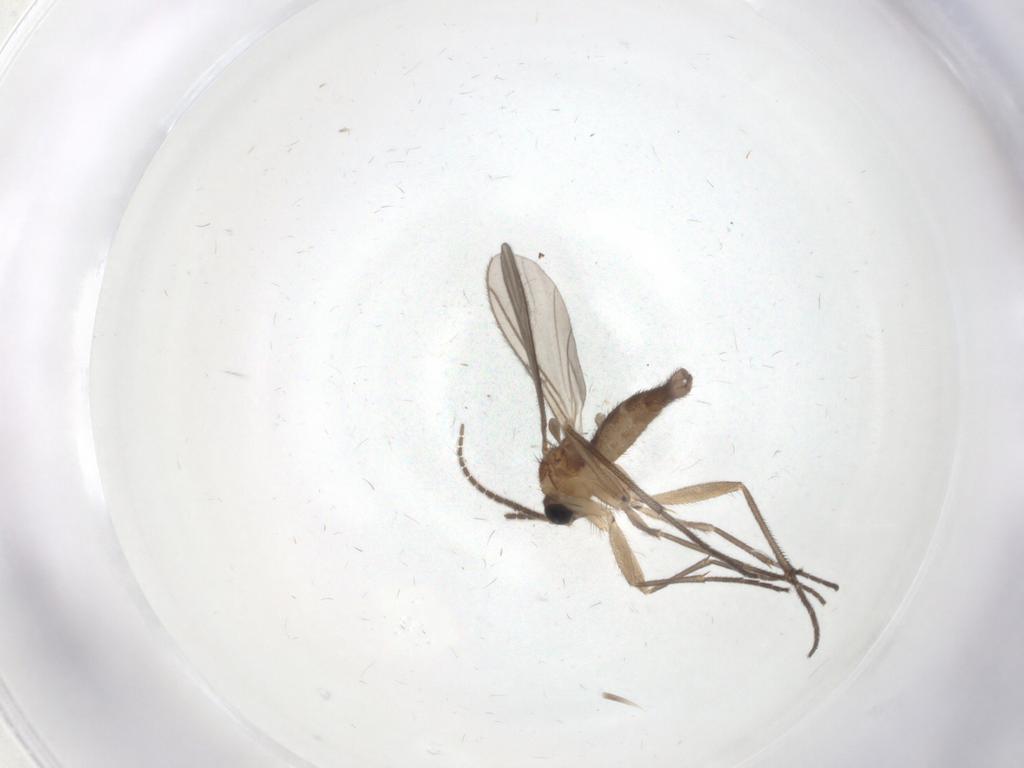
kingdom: Animalia
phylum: Arthropoda
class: Insecta
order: Diptera
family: Sciaridae
